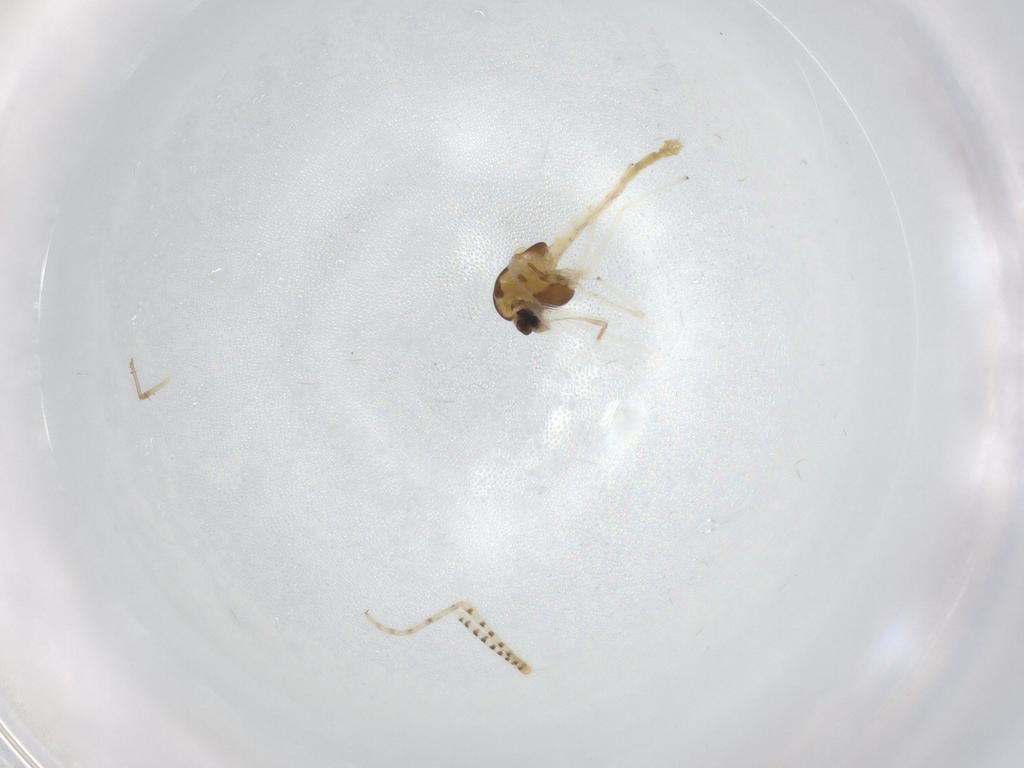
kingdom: Animalia
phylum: Arthropoda
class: Insecta
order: Diptera
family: Chironomidae
